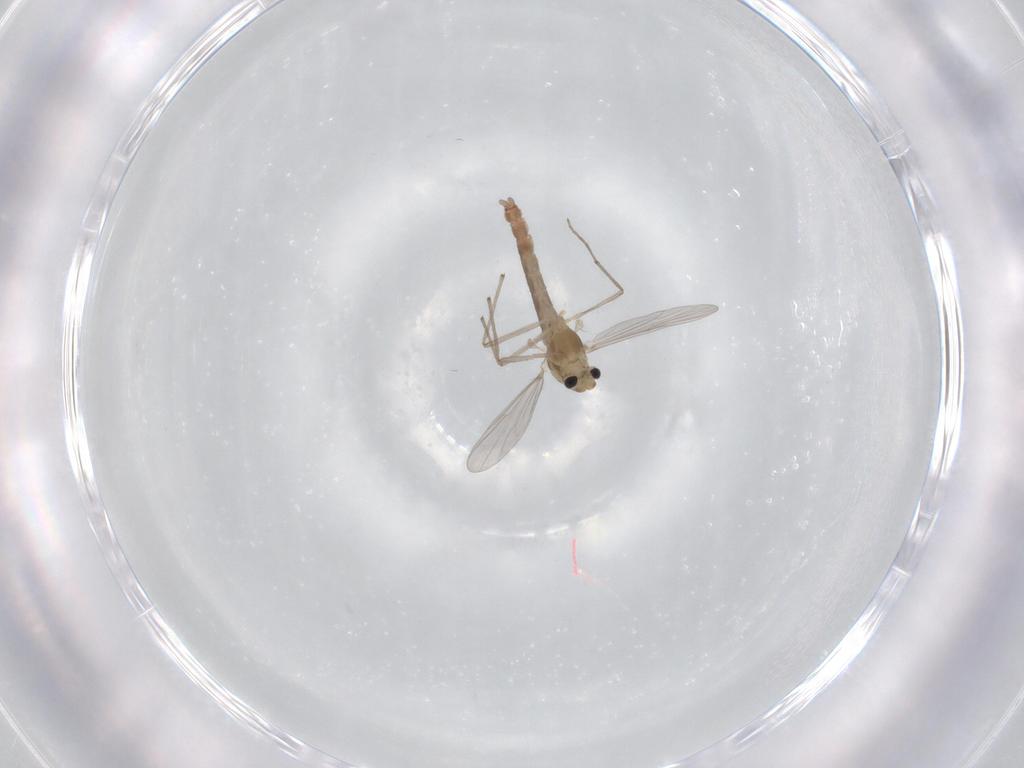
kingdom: Animalia
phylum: Arthropoda
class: Insecta
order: Diptera
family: Chironomidae
